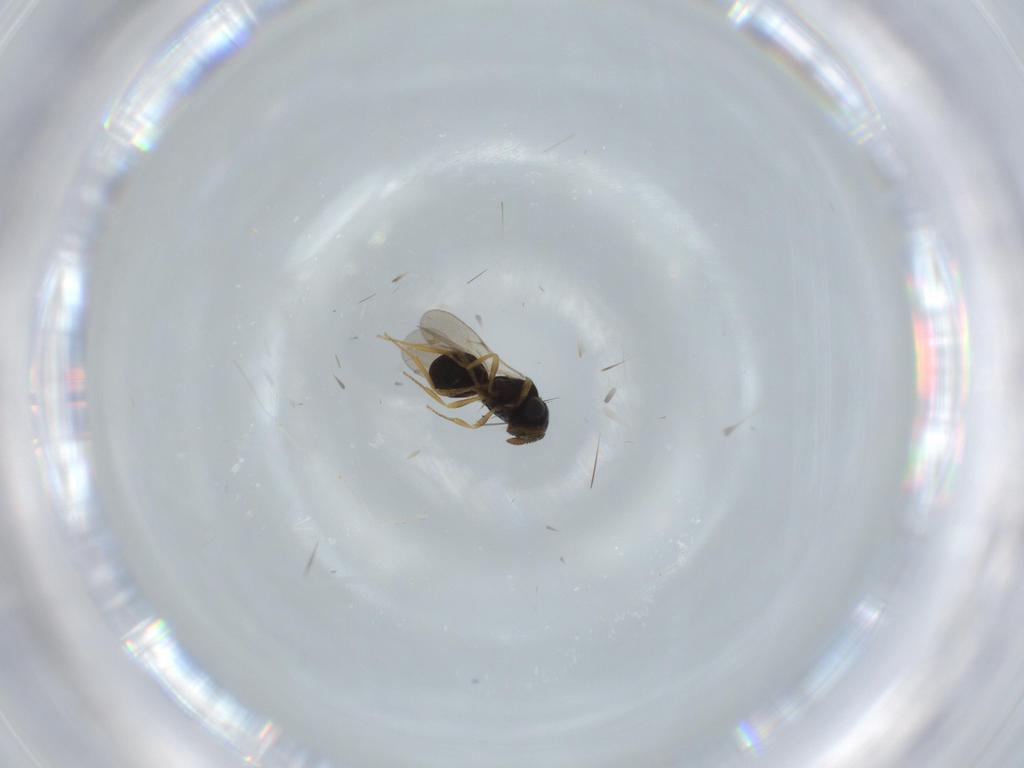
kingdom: Animalia
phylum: Arthropoda
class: Insecta
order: Hymenoptera
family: Scelionidae
